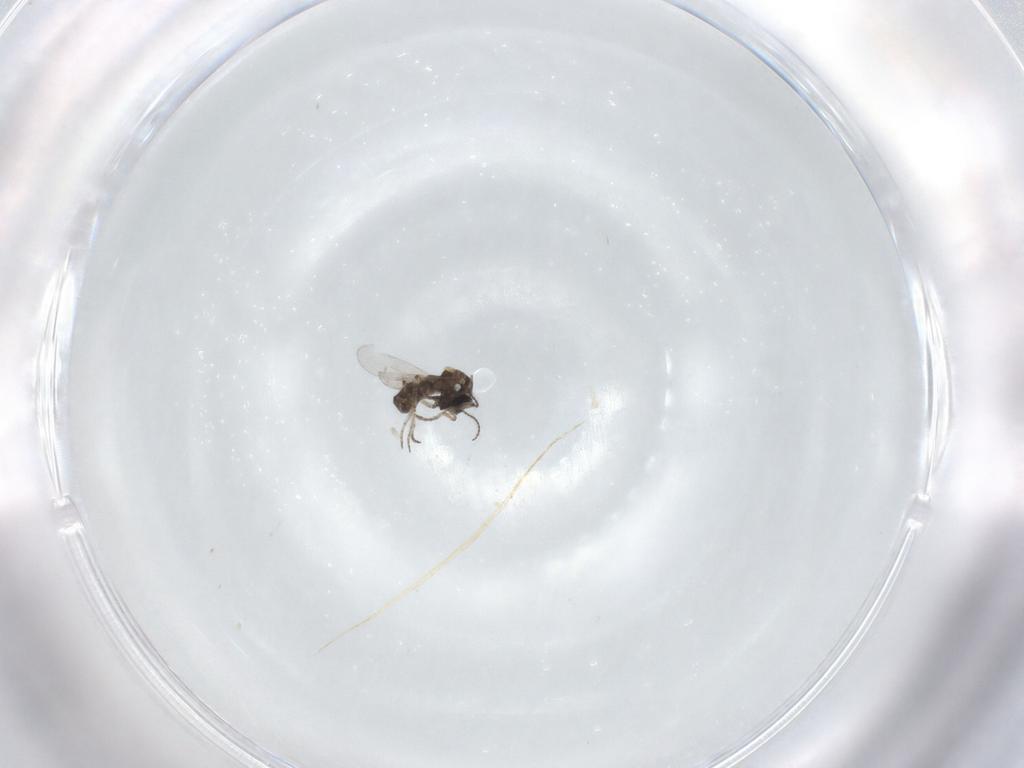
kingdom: Animalia
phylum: Arthropoda
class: Insecta
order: Diptera
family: Ceratopogonidae
